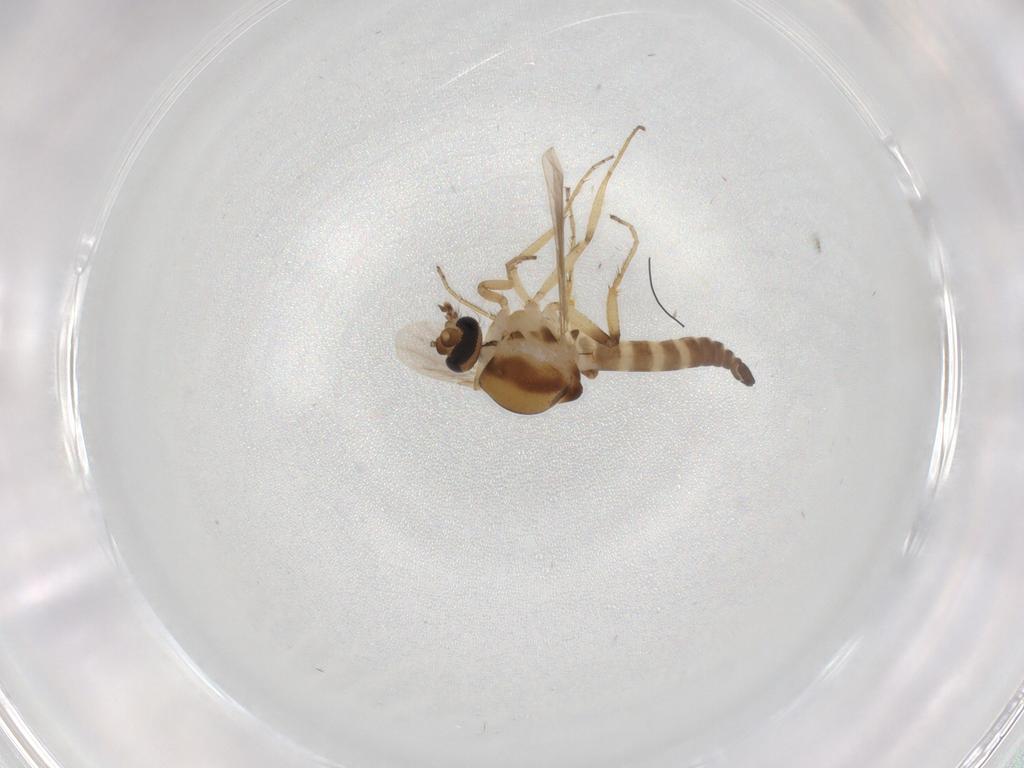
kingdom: Animalia
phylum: Arthropoda
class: Insecta
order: Diptera
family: Ceratopogonidae
